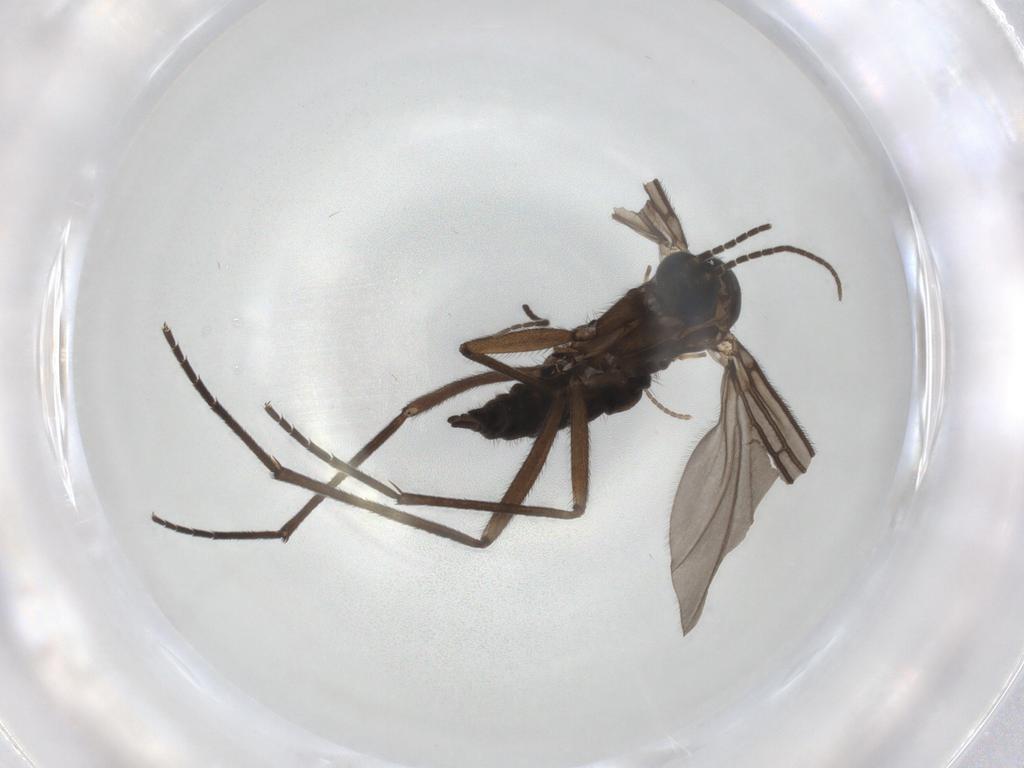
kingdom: Animalia
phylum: Arthropoda
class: Insecta
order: Diptera
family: Sciaridae
